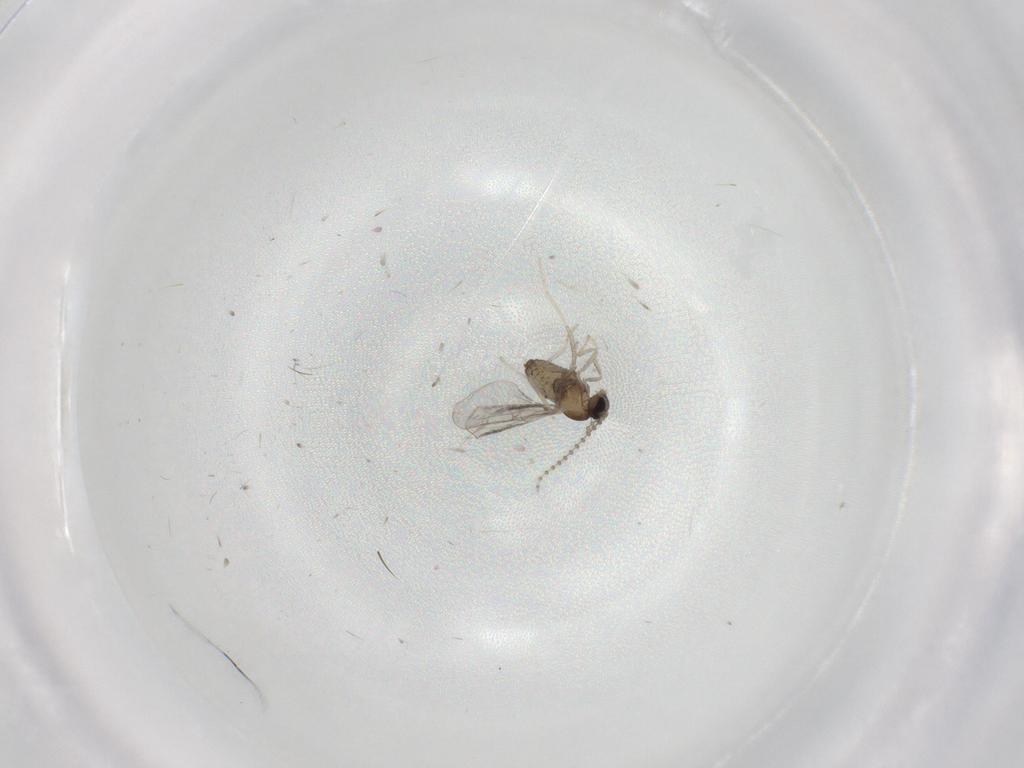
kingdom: Animalia
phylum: Arthropoda
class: Insecta
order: Diptera
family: Cecidomyiidae
